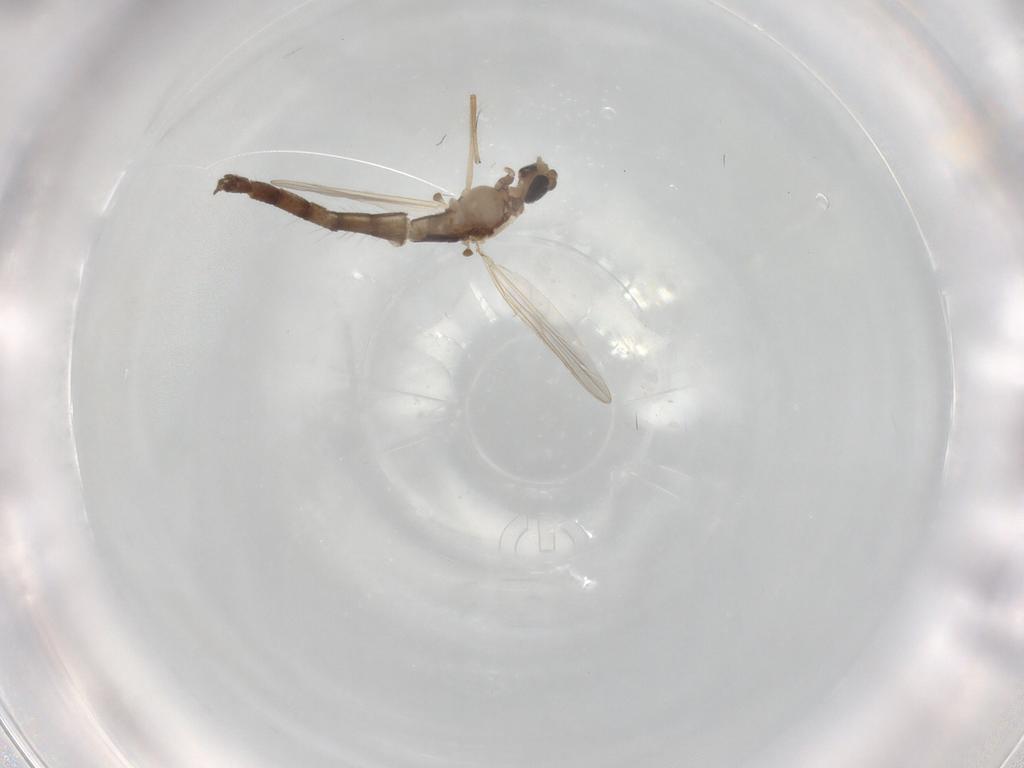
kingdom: Animalia
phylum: Arthropoda
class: Insecta
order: Diptera
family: Chironomidae
